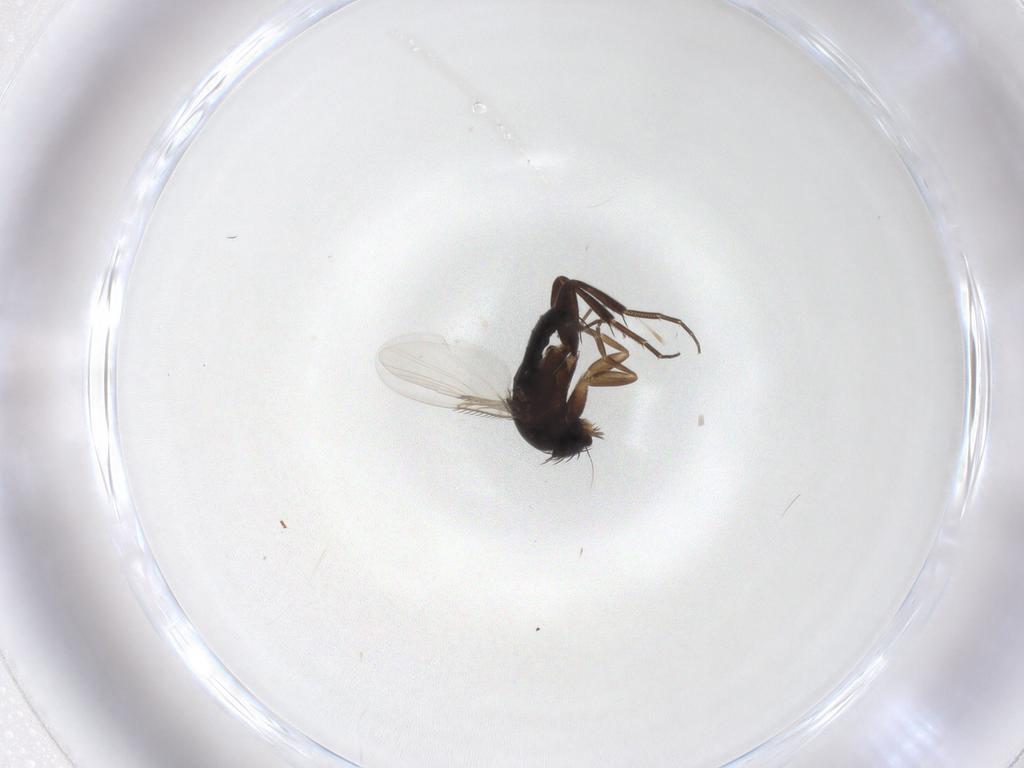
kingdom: Animalia
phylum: Arthropoda
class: Insecta
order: Diptera
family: Phoridae
